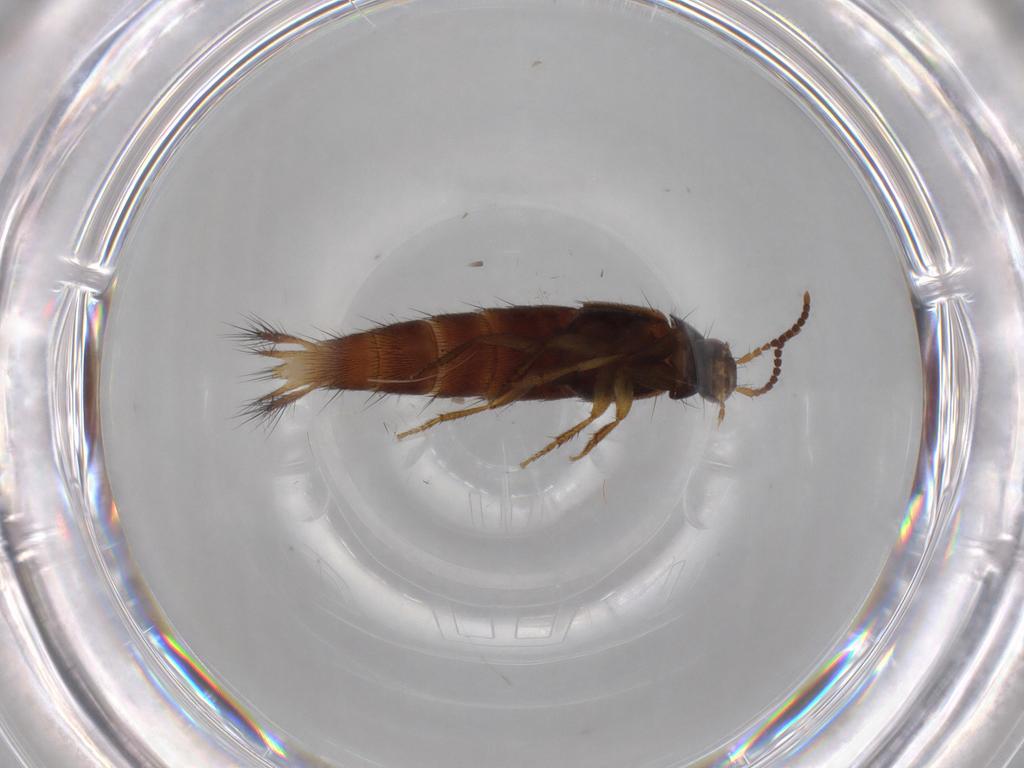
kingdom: Animalia
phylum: Arthropoda
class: Insecta
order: Coleoptera
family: Staphylinidae
